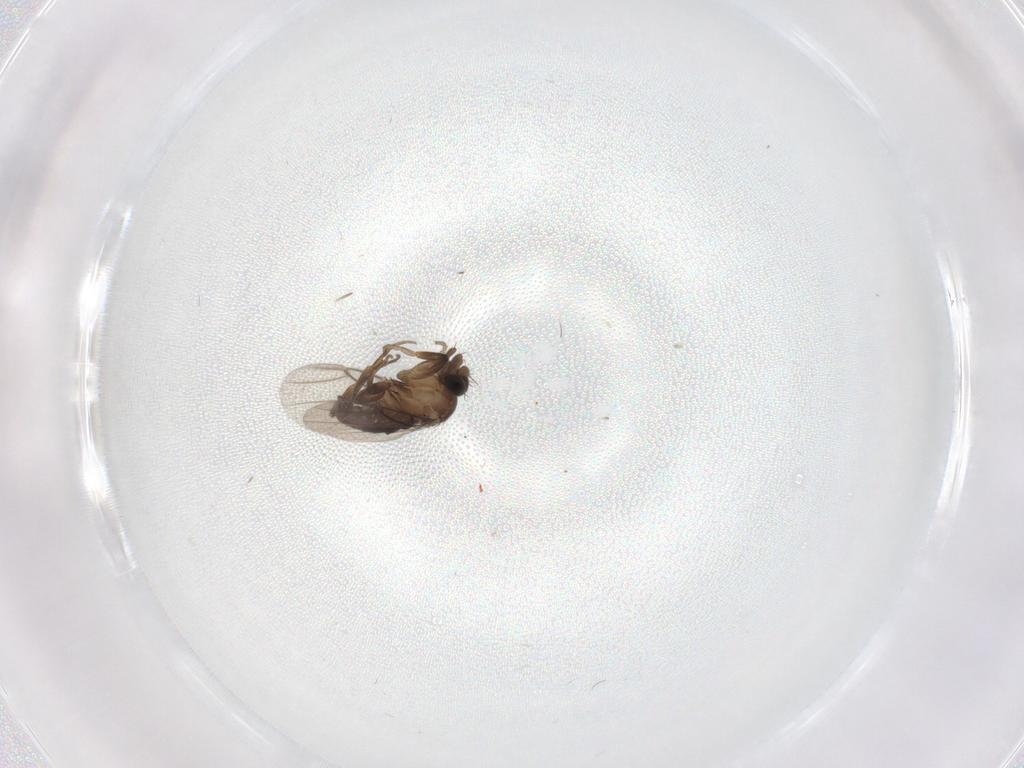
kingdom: Animalia
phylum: Arthropoda
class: Insecta
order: Diptera
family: Phoridae
